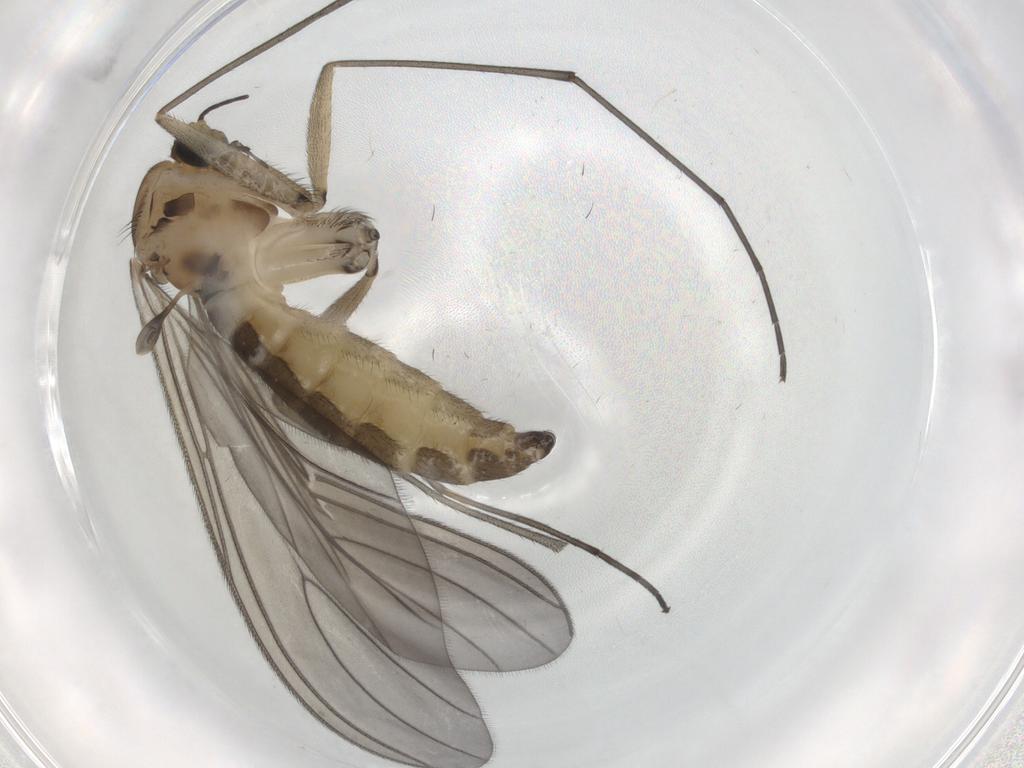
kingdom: Animalia
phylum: Arthropoda
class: Insecta
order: Diptera
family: Sciaridae
